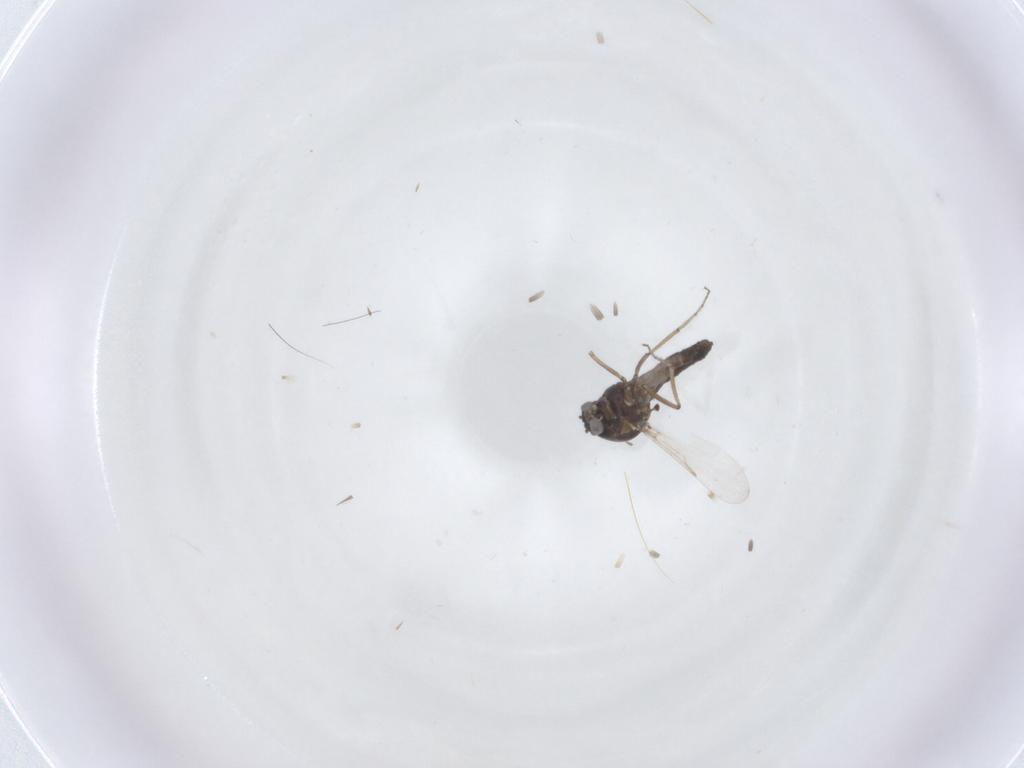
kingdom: Animalia
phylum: Arthropoda
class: Insecta
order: Diptera
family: Ceratopogonidae
